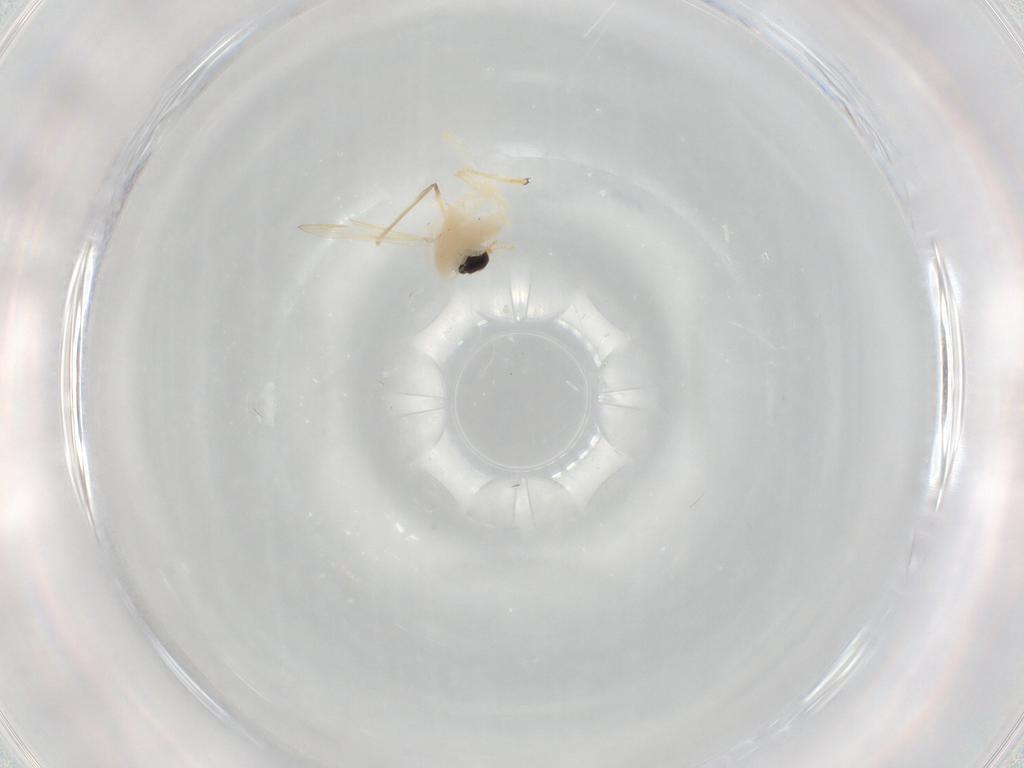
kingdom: Animalia
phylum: Arthropoda
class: Insecta
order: Diptera
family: Chironomidae
